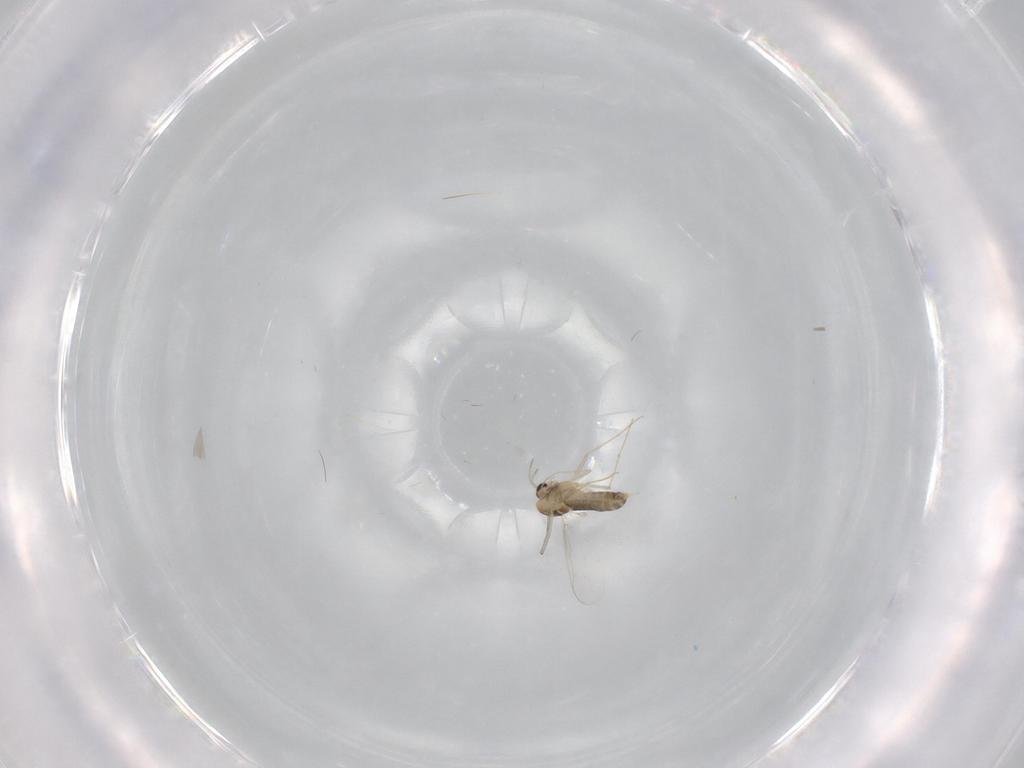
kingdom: Animalia
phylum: Arthropoda
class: Insecta
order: Diptera
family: Chironomidae
